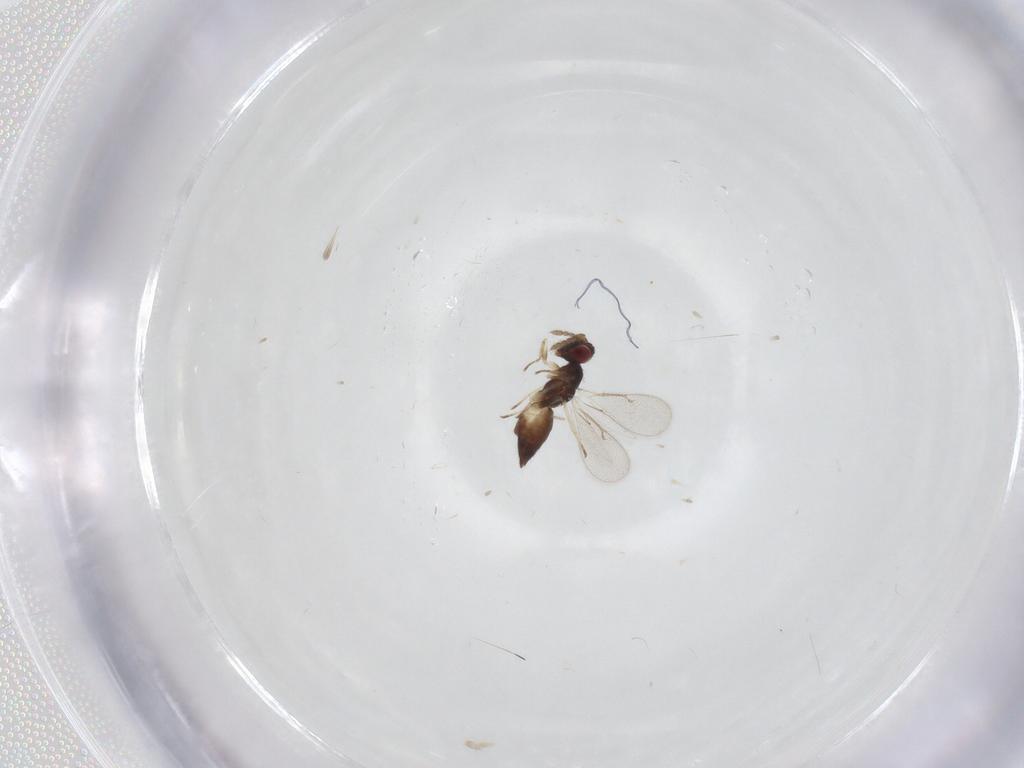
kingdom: Animalia
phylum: Arthropoda
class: Insecta
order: Hymenoptera
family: Eulophidae
